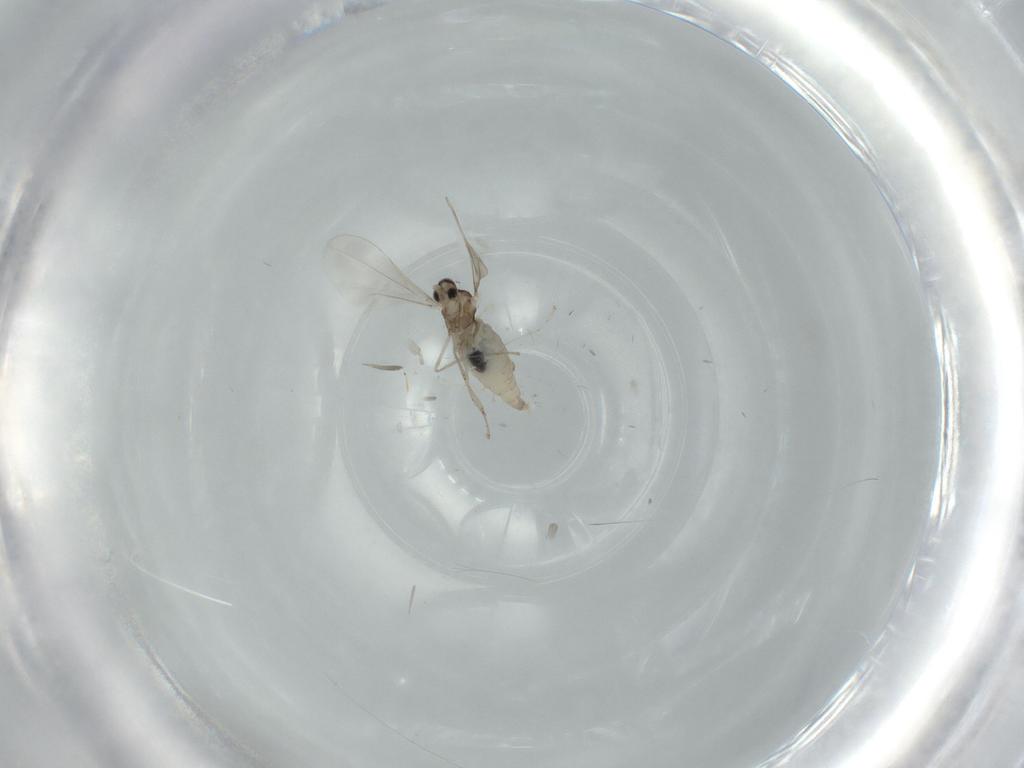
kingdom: Animalia
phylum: Arthropoda
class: Insecta
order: Diptera
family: Cecidomyiidae
